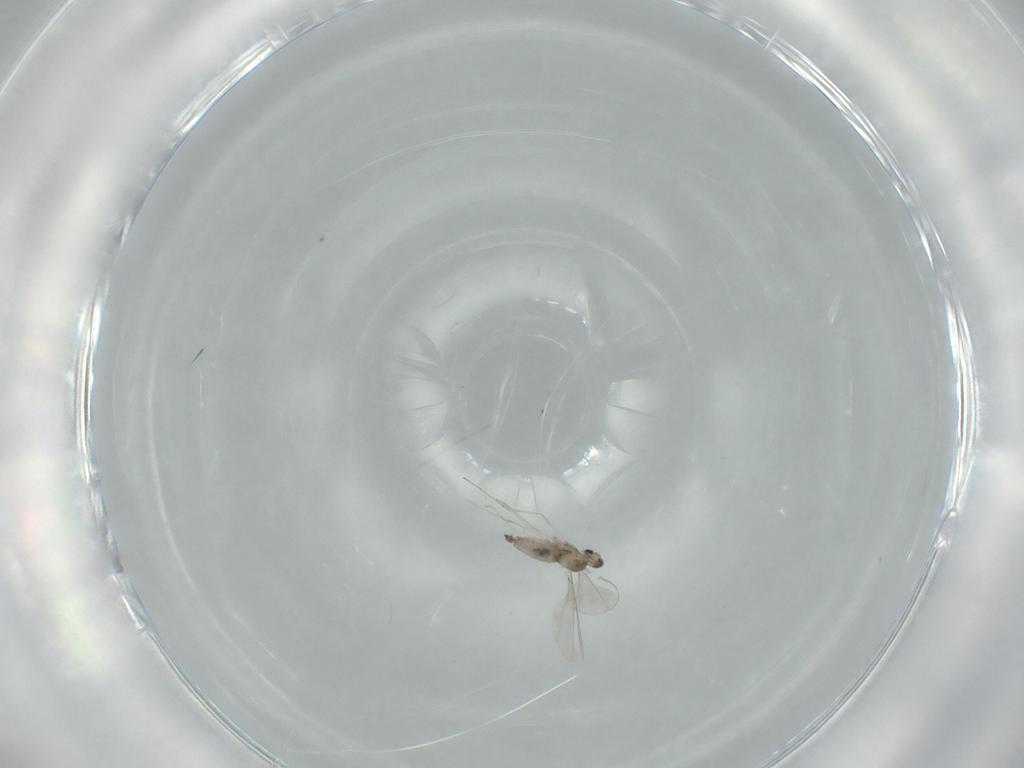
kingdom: Animalia
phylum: Arthropoda
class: Insecta
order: Diptera
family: Cecidomyiidae
